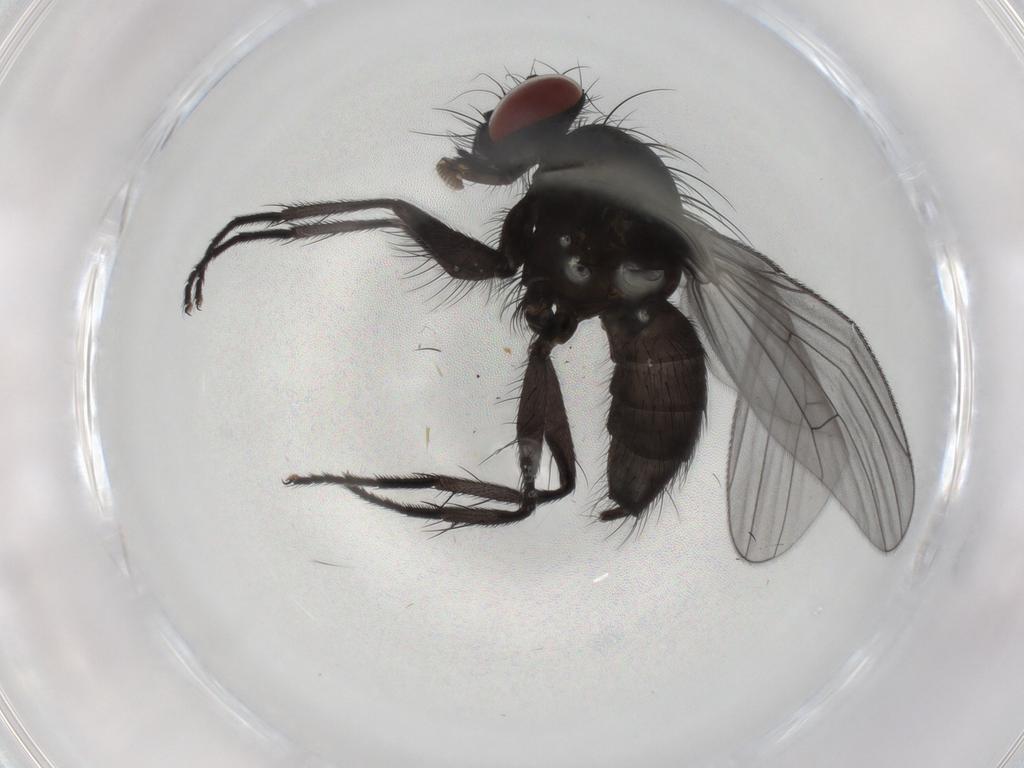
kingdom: Animalia
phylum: Arthropoda
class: Insecta
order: Diptera
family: Muscidae
